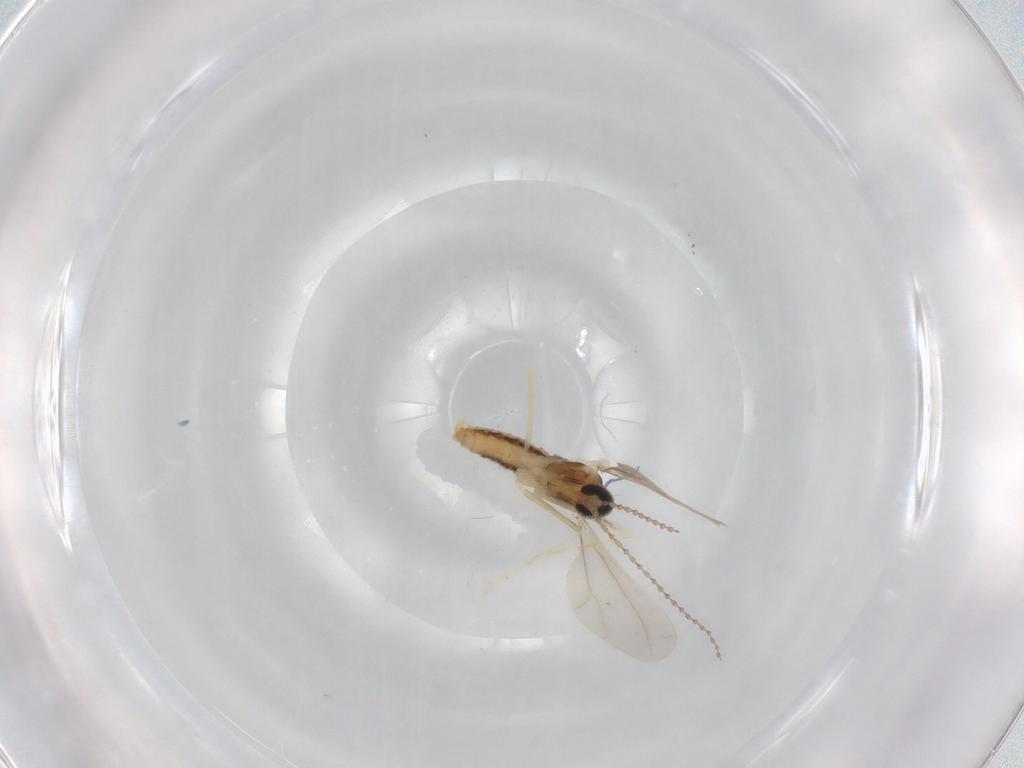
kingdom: Animalia
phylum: Arthropoda
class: Insecta
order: Diptera
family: Cecidomyiidae
